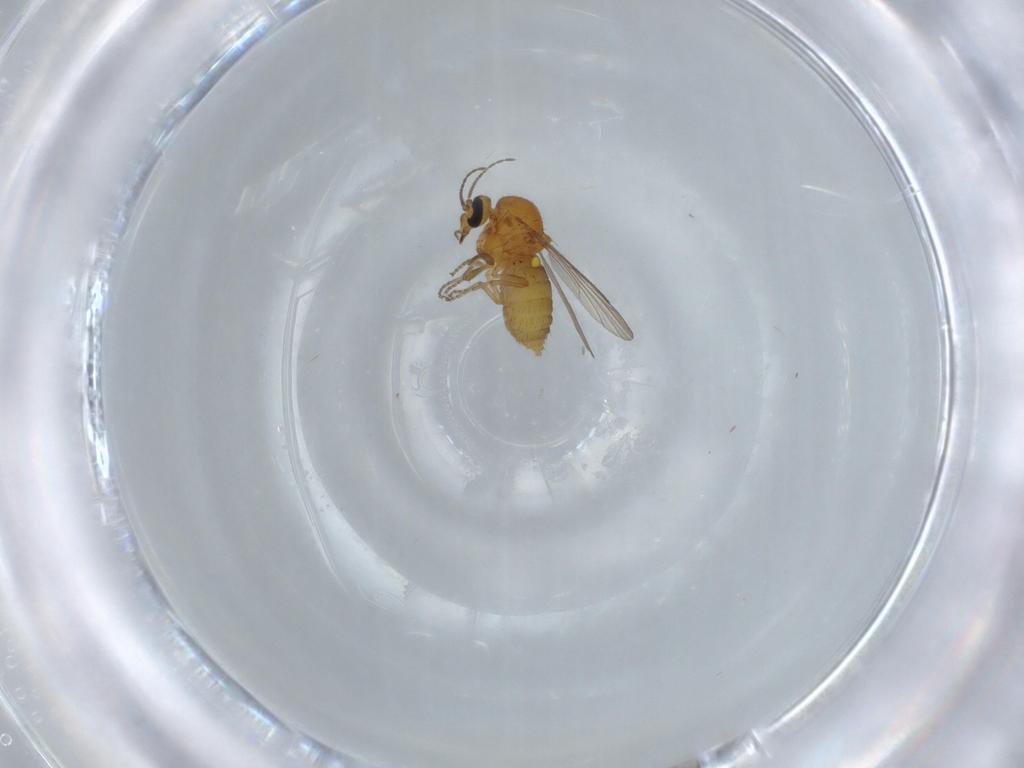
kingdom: Animalia
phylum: Arthropoda
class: Insecta
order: Diptera
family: Ceratopogonidae
